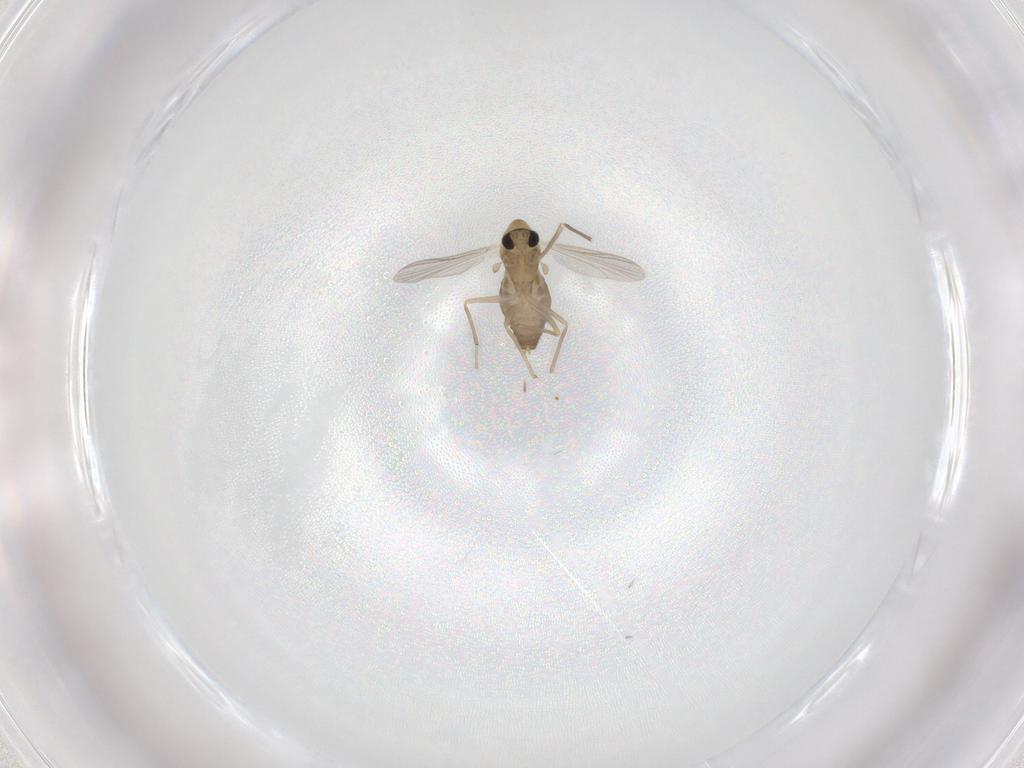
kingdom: Animalia
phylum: Arthropoda
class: Insecta
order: Diptera
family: Chironomidae
